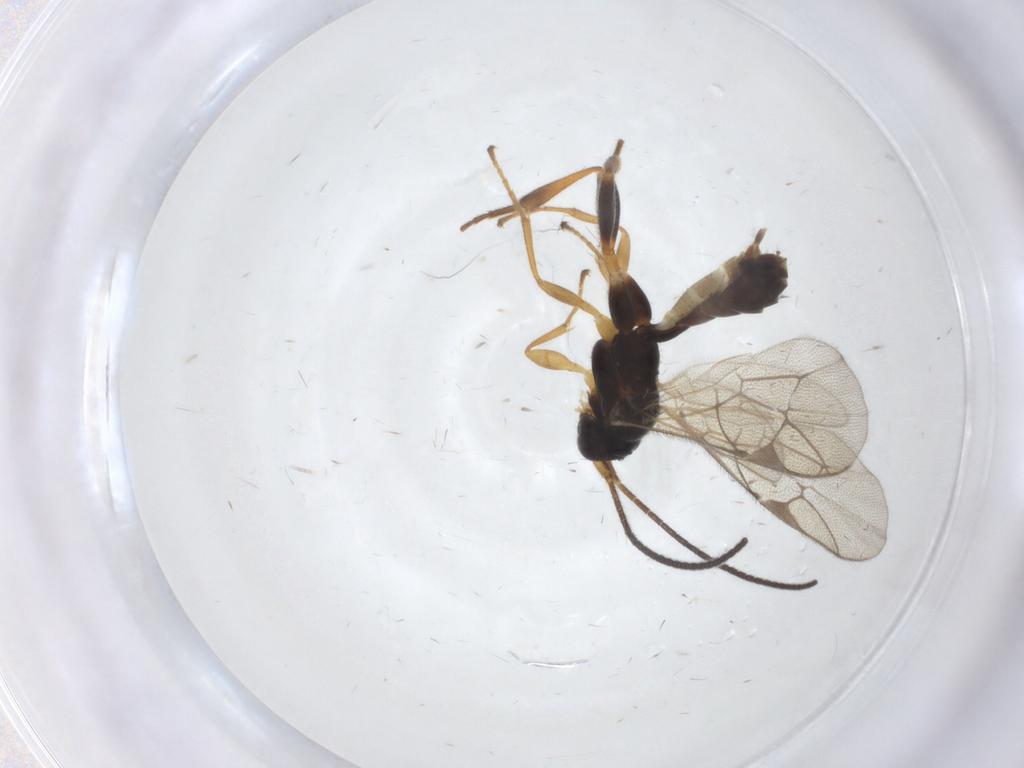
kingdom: Animalia
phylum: Arthropoda
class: Insecta
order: Hymenoptera
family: Ichneumonidae
